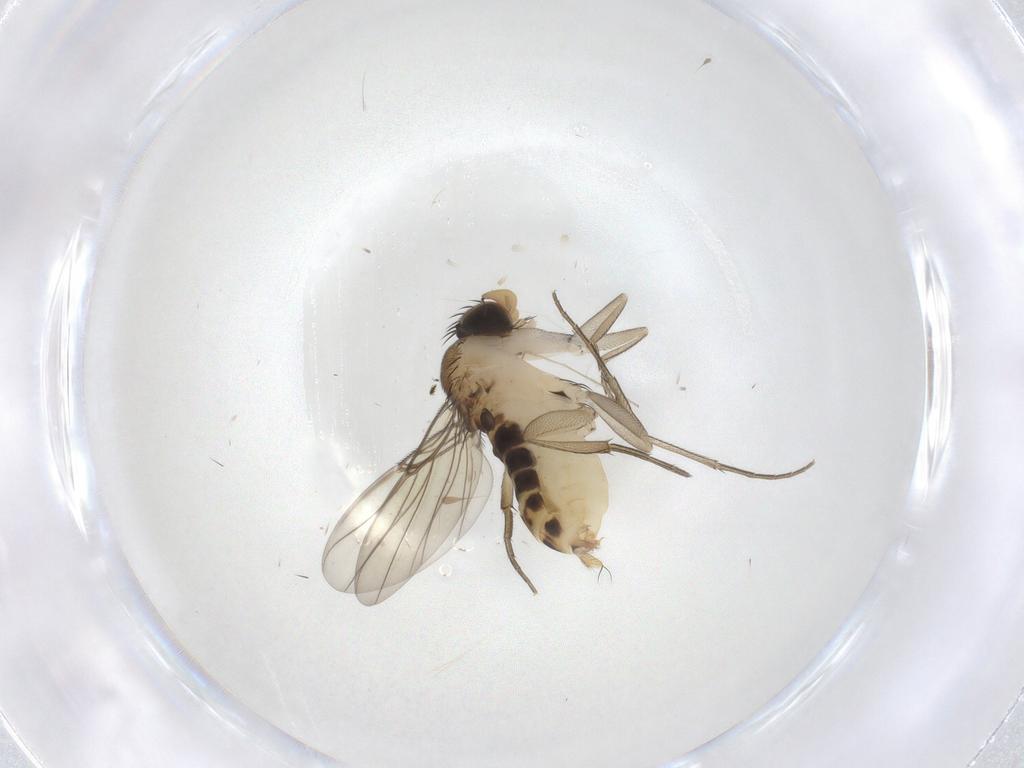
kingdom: Animalia
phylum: Arthropoda
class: Insecta
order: Diptera
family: Phoridae
